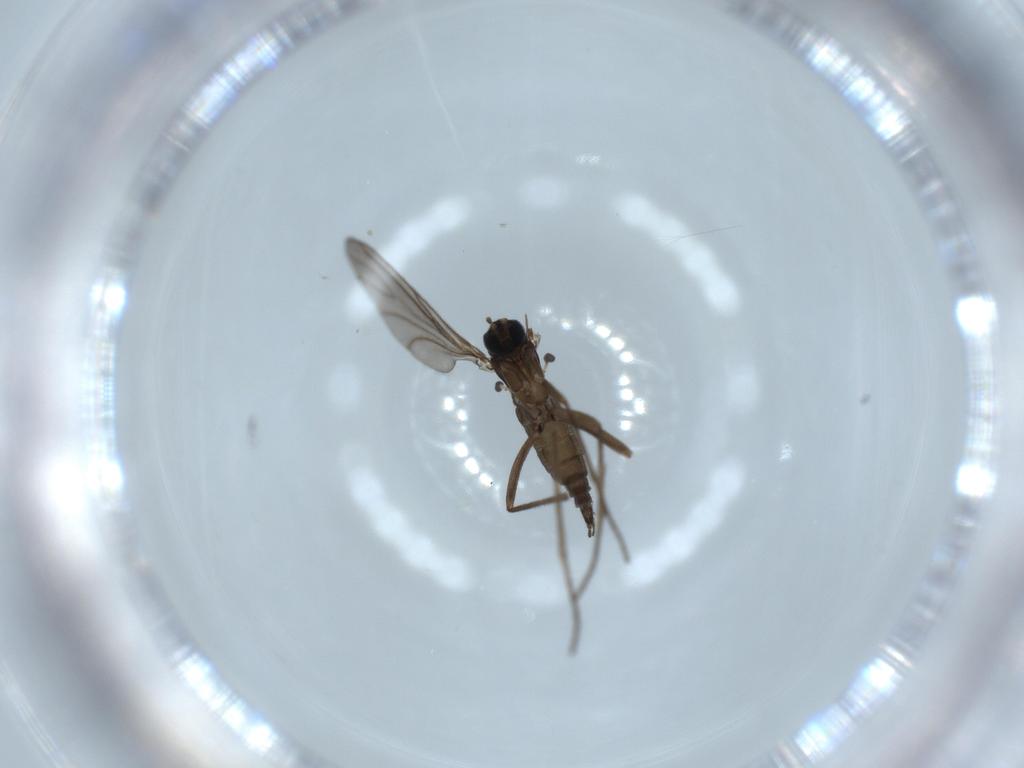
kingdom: Animalia
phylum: Arthropoda
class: Insecta
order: Diptera
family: Sciaridae
